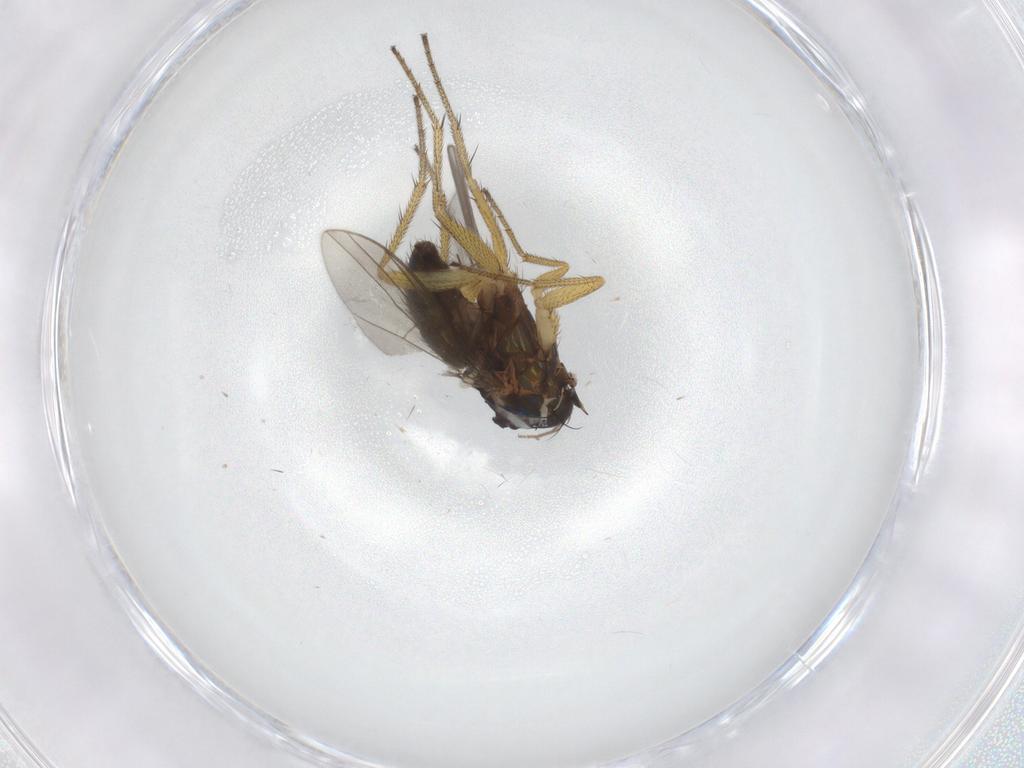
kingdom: Animalia
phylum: Arthropoda
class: Insecta
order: Diptera
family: Dolichopodidae
